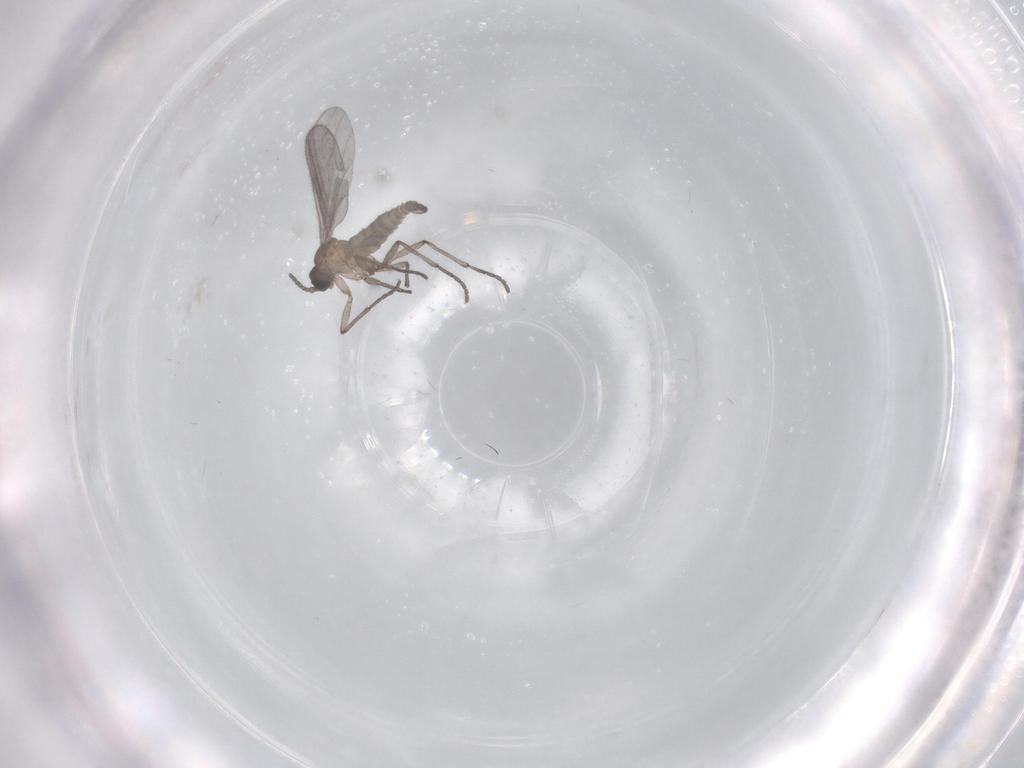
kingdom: Animalia
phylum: Arthropoda
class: Insecta
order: Diptera
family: Sciaridae
